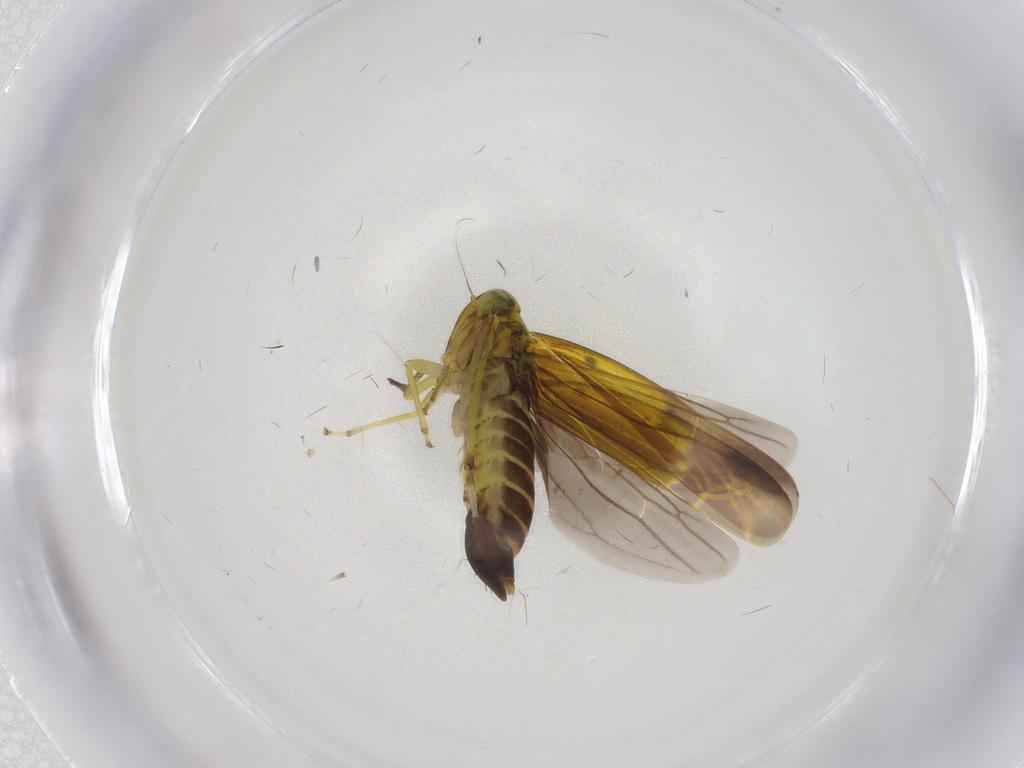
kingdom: Animalia
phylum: Arthropoda
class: Insecta
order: Hemiptera
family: Cicadellidae
